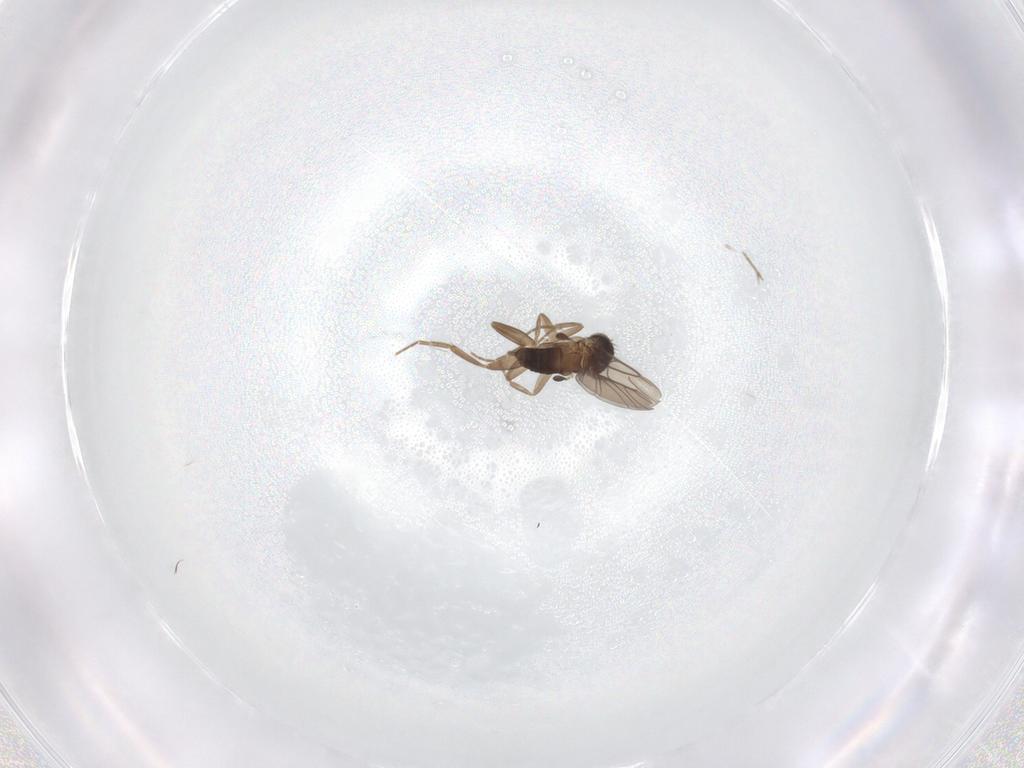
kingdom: Animalia
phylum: Arthropoda
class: Insecta
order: Diptera
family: Phoridae
